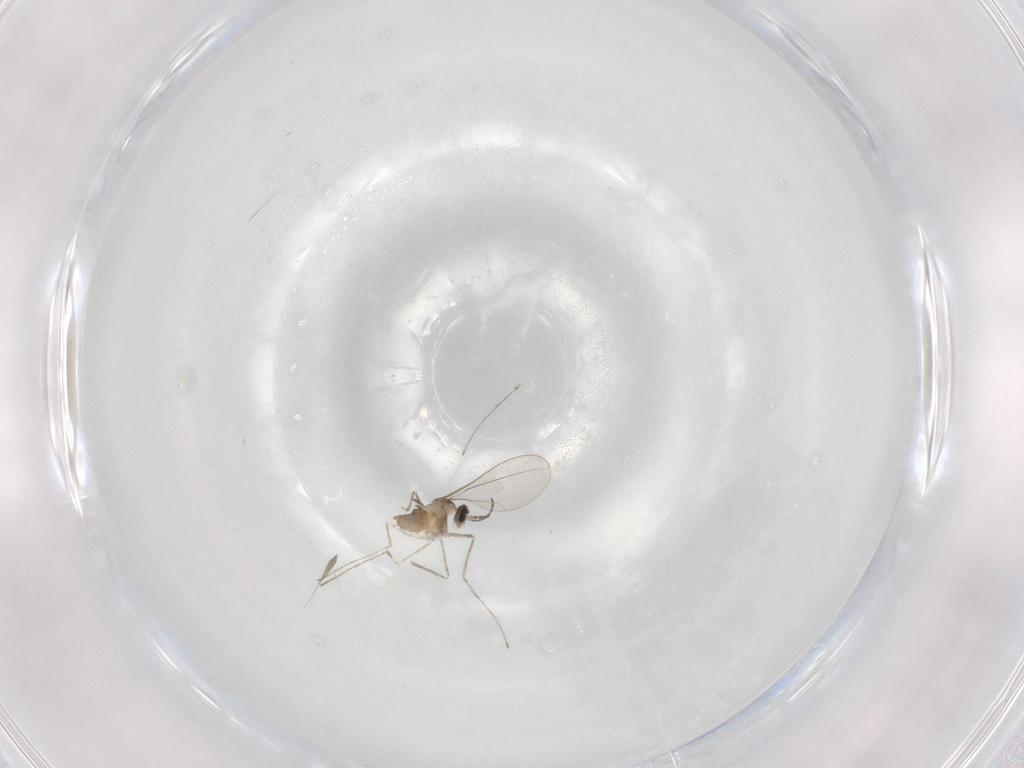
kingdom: Animalia
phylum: Arthropoda
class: Insecta
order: Diptera
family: Cecidomyiidae
